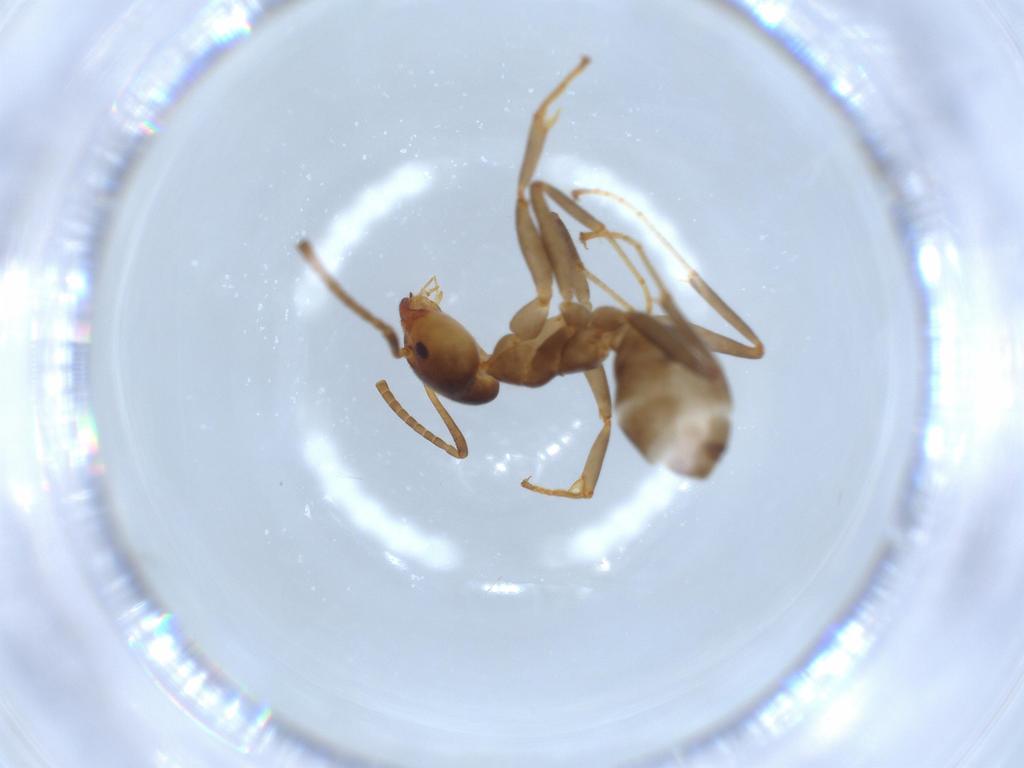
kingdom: Animalia
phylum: Arthropoda
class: Insecta
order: Hymenoptera
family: Formicidae
